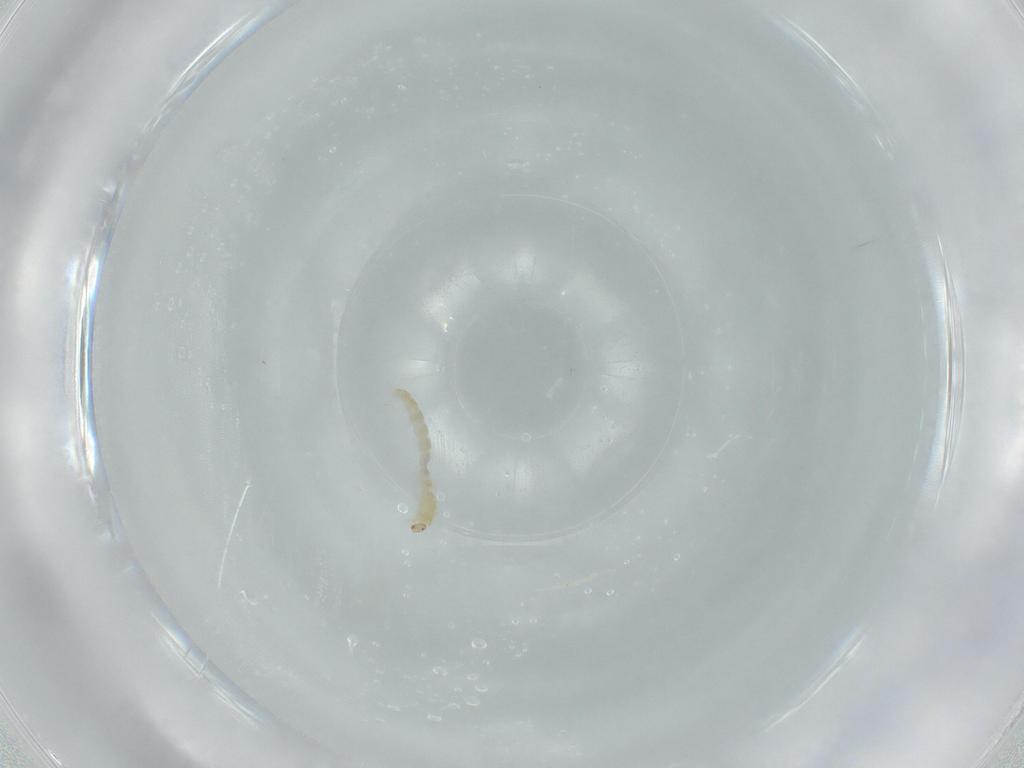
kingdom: Animalia
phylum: Arthropoda
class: Insecta
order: Diptera
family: Chironomidae
